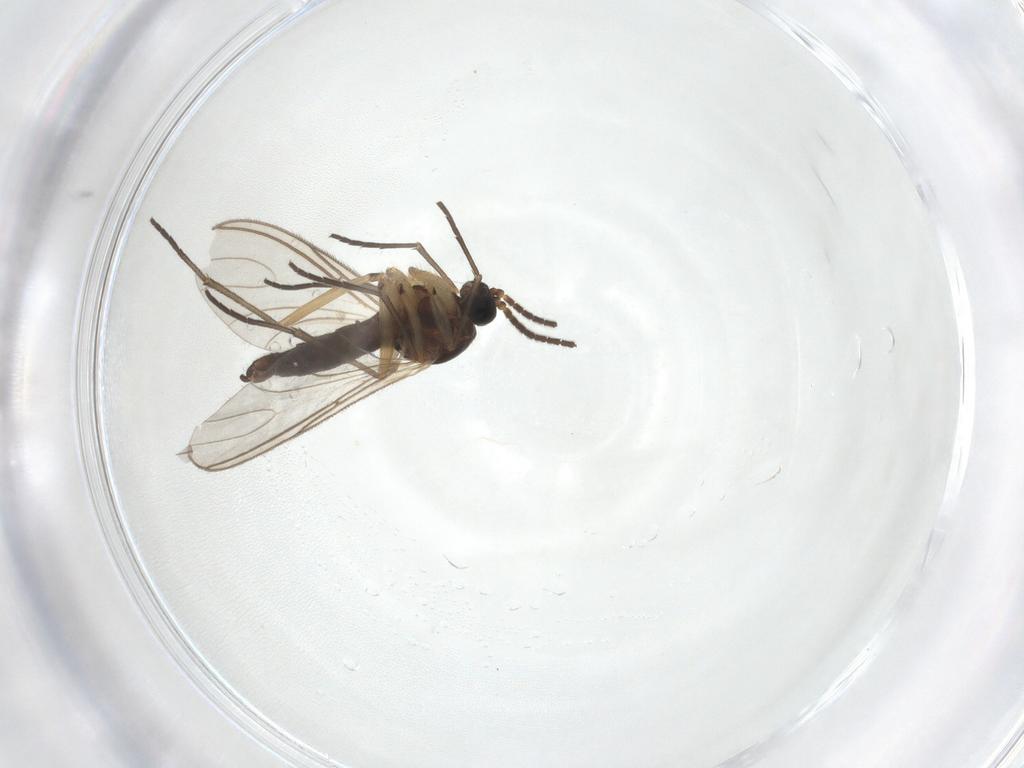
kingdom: Animalia
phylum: Arthropoda
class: Insecta
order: Diptera
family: Sciaridae
